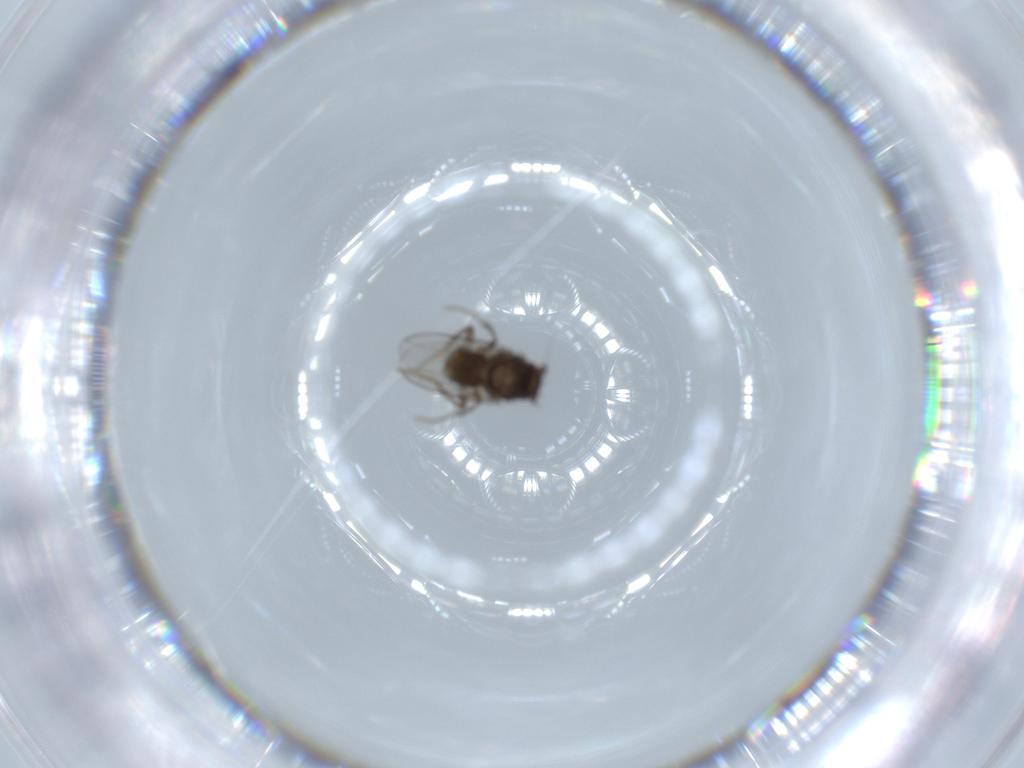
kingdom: Animalia
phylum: Arthropoda
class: Insecta
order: Diptera
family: Sphaeroceridae
